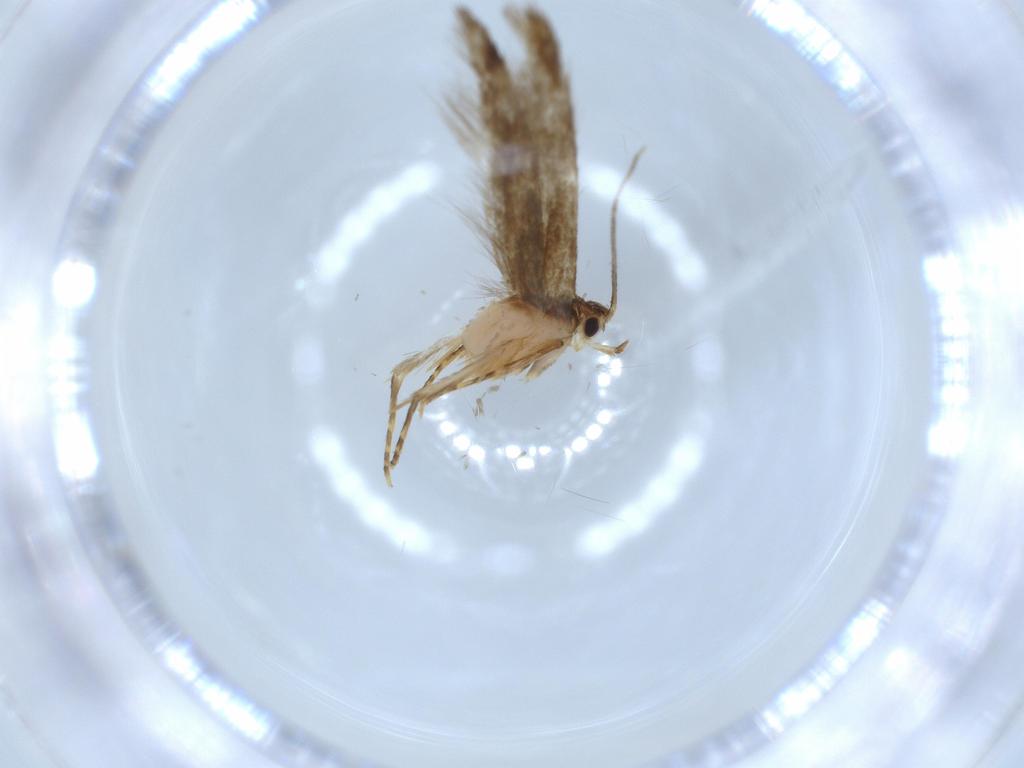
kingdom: Animalia
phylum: Arthropoda
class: Insecta
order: Lepidoptera
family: Tineidae
